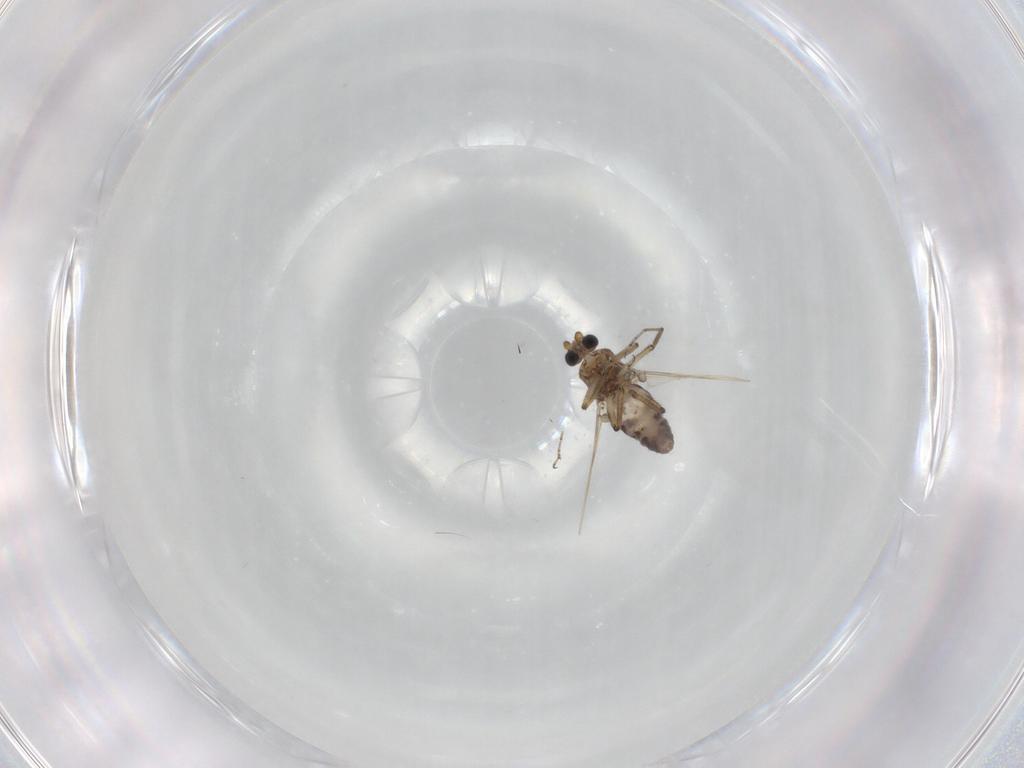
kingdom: Animalia
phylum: Arthropoda
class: Insecta
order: Diptera
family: Ceratopogonidae
